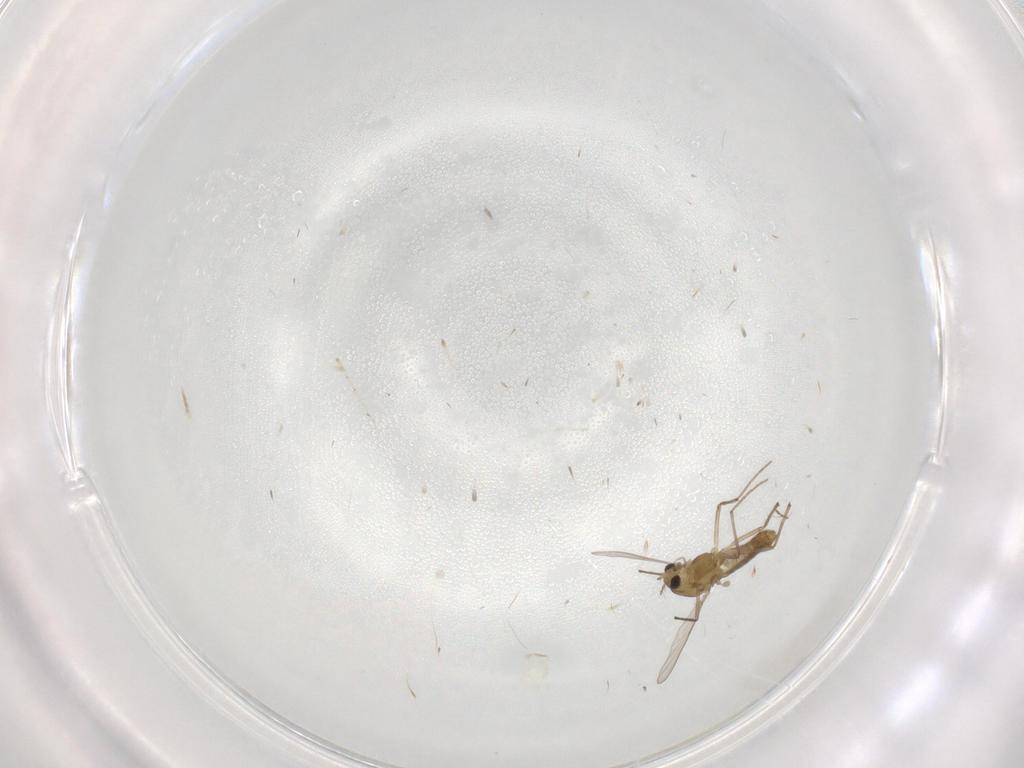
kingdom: Animalia
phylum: Arthropoda
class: Insecta
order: Diptera
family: Cecidomyiidae
